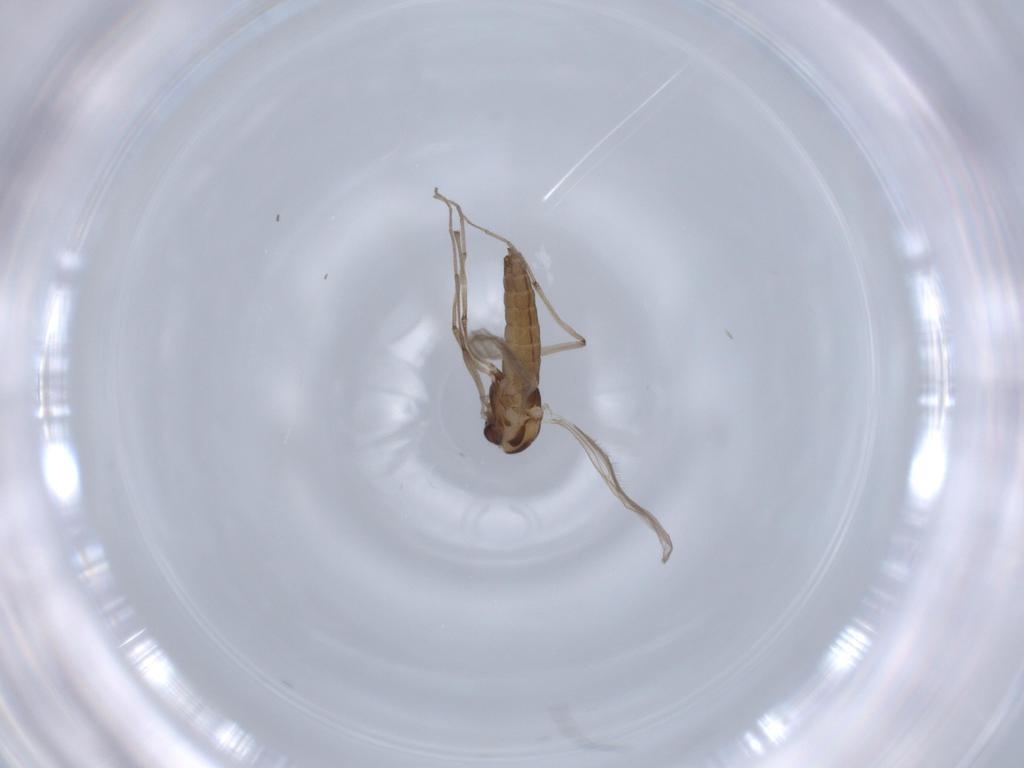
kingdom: Animalia
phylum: Arthropoda
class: Insecta
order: Diptera
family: Chironomidae
